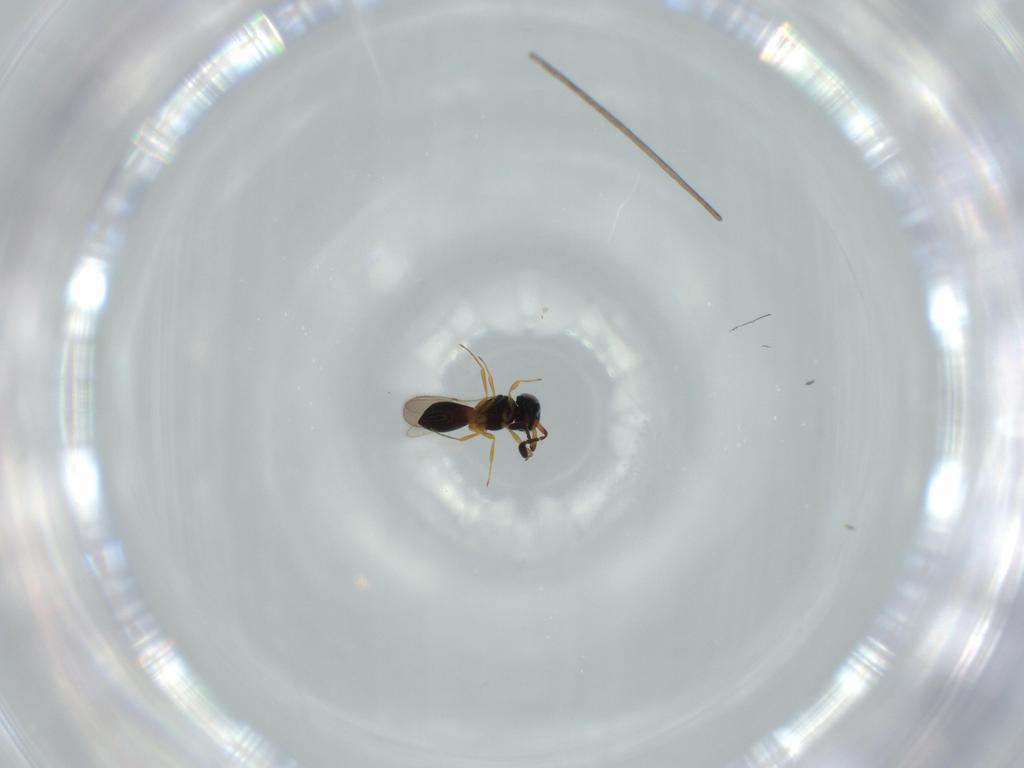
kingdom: Animalia
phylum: Arthropoda
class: Insecta
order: Hymenoptera
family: Scelionidae
